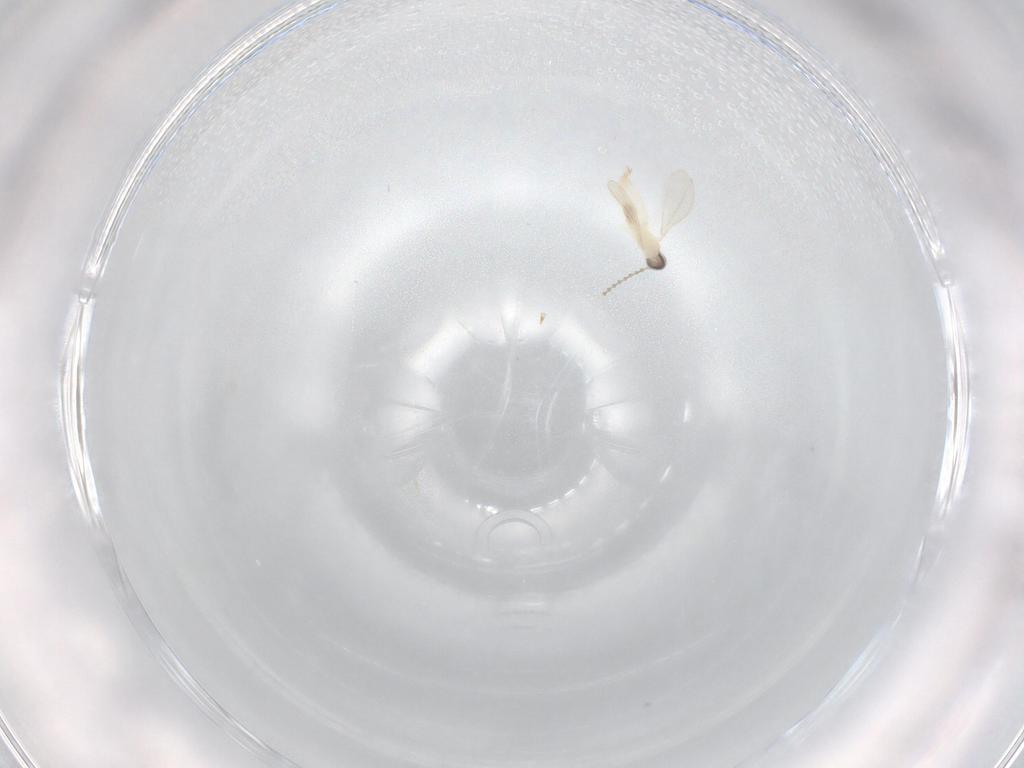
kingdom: Animalia
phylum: Arthropoda
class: Insecta
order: Diptera
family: Cecidomyiidae
